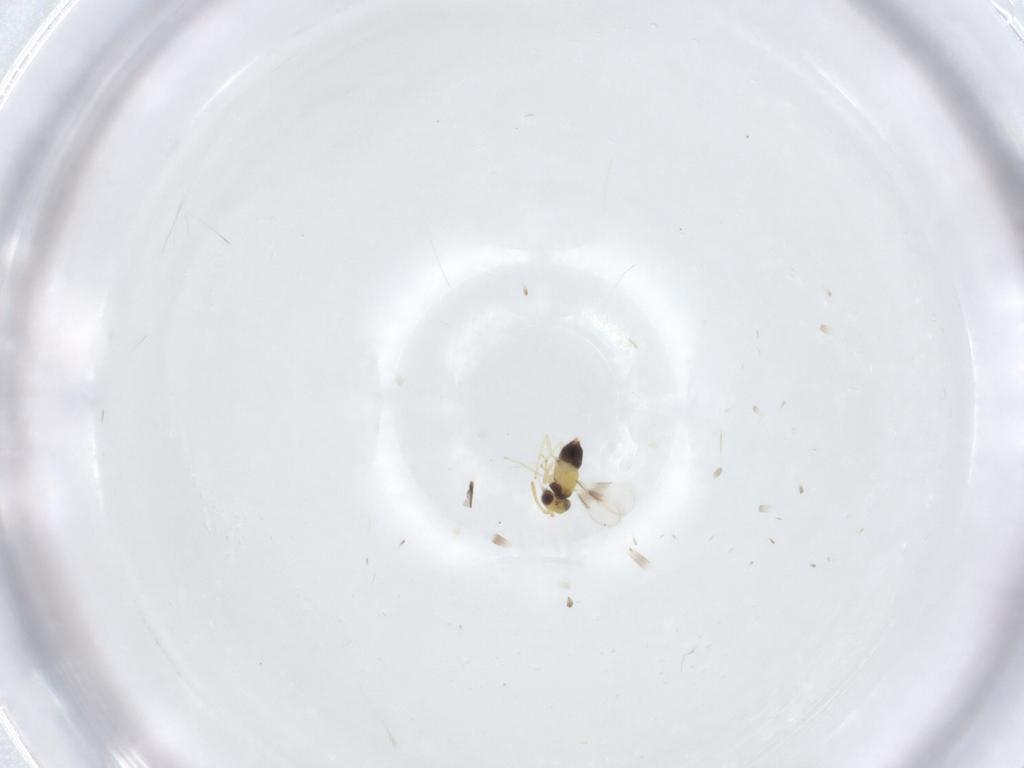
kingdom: Animalia
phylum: Arthropoda
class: Insecta
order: Hymenoptera
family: Aphelinidae
